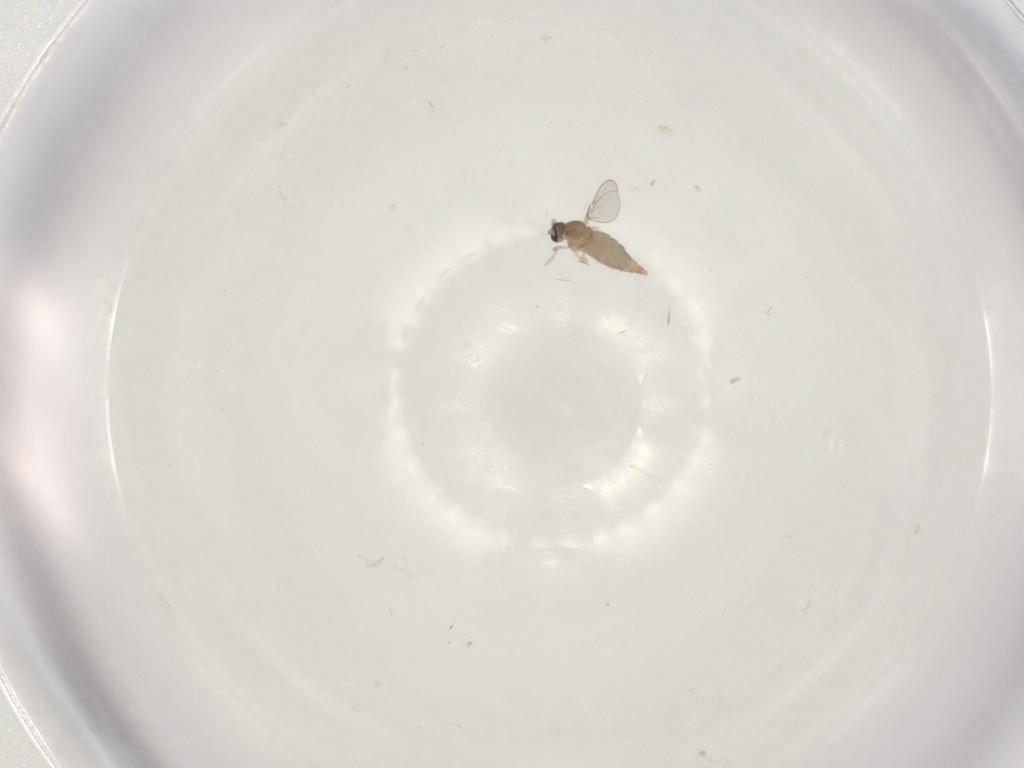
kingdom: Animalia
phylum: Arthropoda
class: Insecta
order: Diptera
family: Cecidomyiidae
